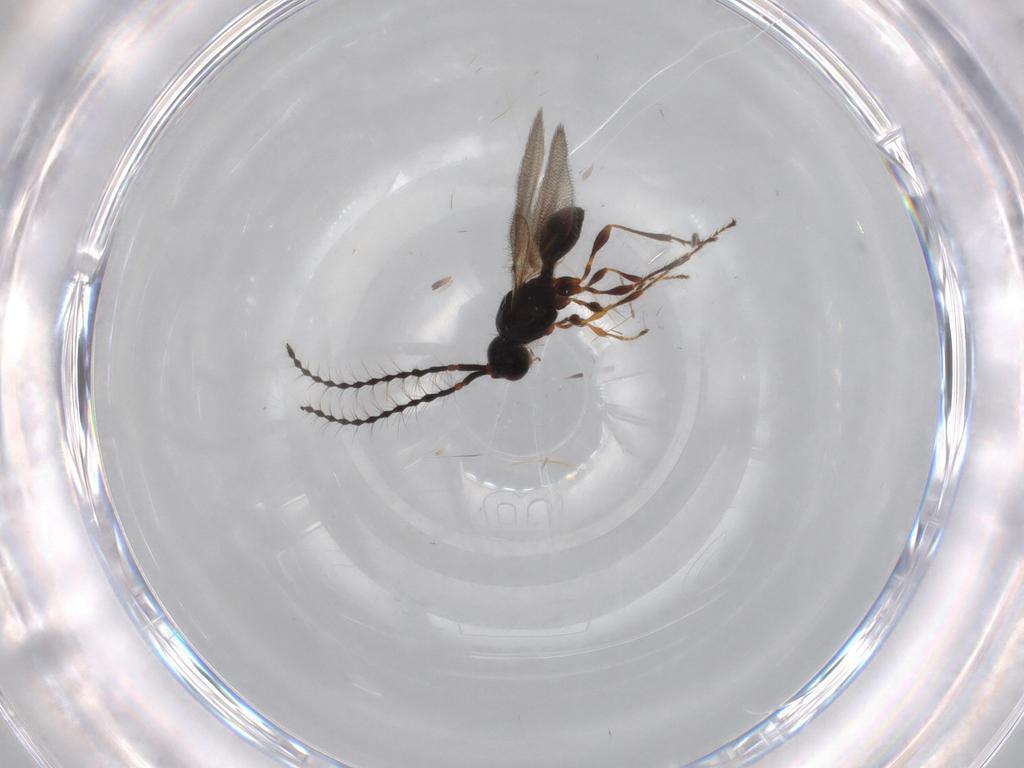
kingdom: Animalia
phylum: Arthropoda
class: Insecta
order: Hymenoptera
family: Diapriidae
